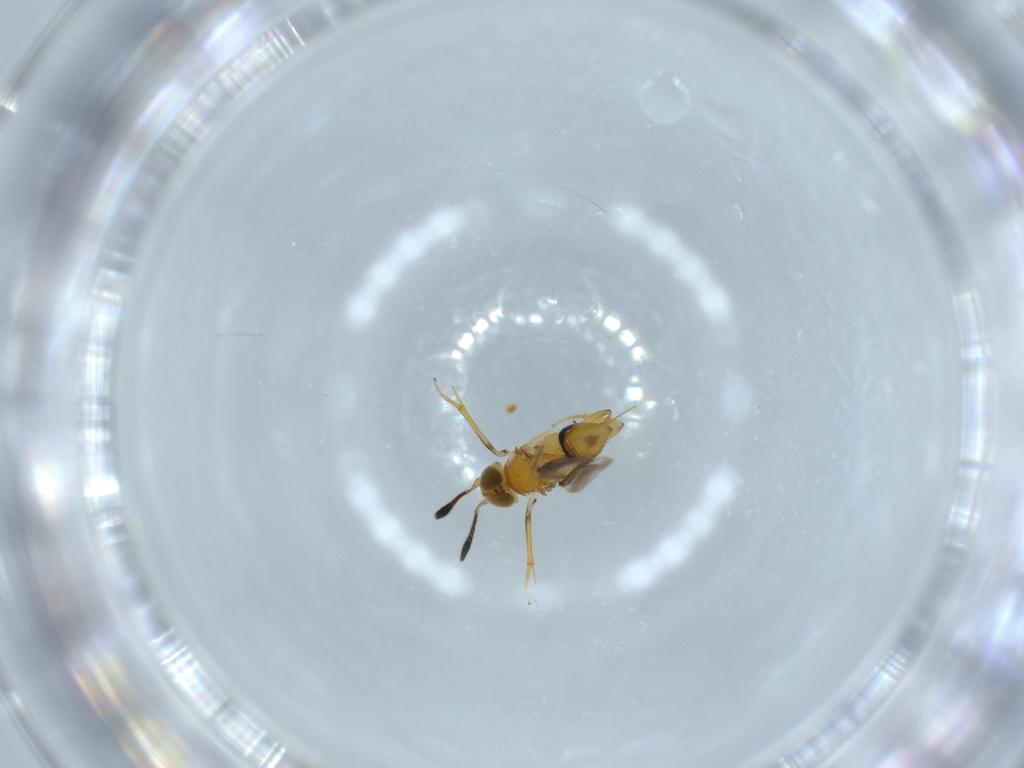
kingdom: Animalia
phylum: Arthropoda
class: Insecta
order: Hymenoptera
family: Encyrtidae
